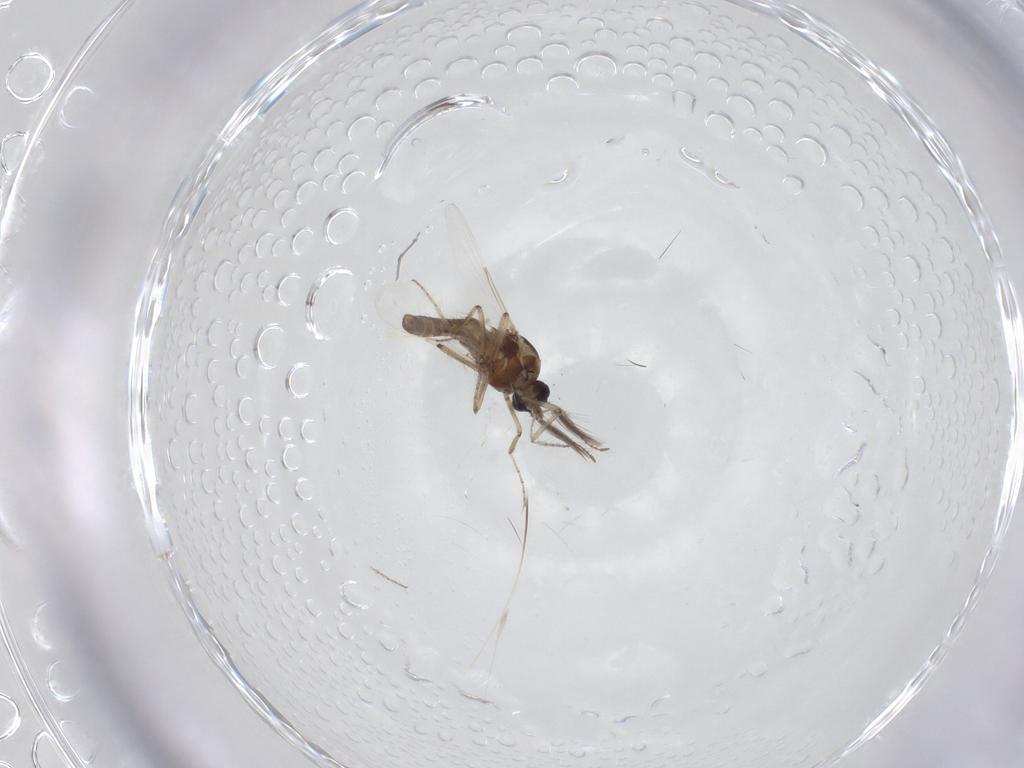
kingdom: Animalia
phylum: Arthropoda
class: Insecta
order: Diptera
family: Ceratopogonidae
